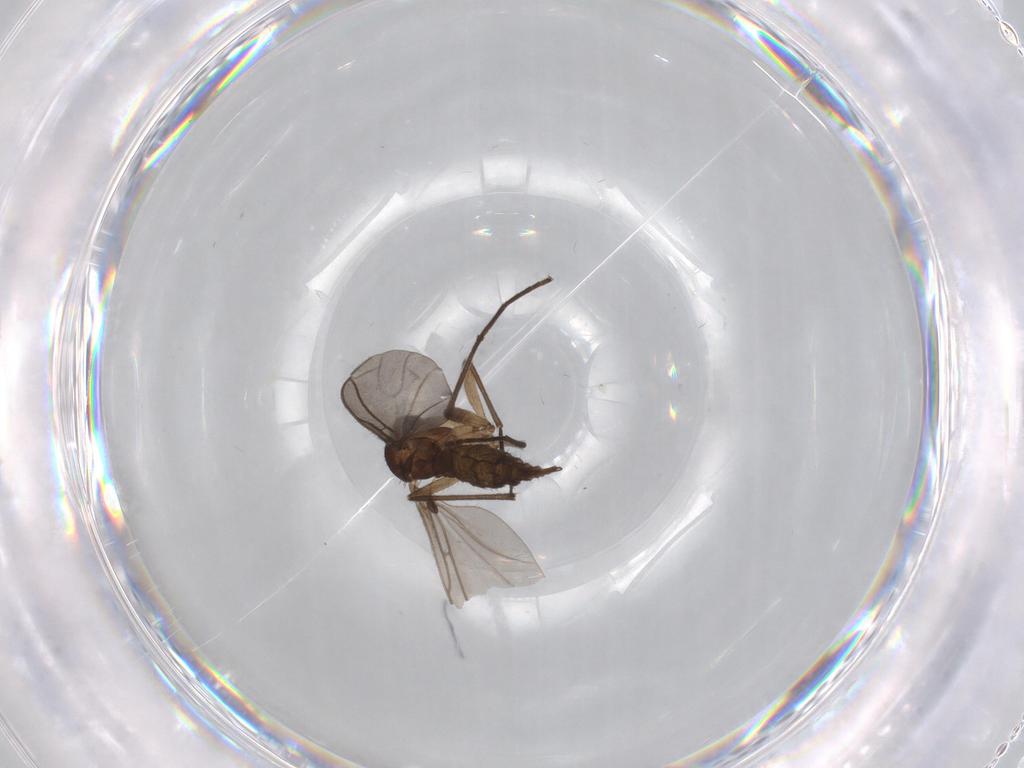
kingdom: Animalia
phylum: Arthropoda
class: Insecta
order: Diptera
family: Sciaridae
